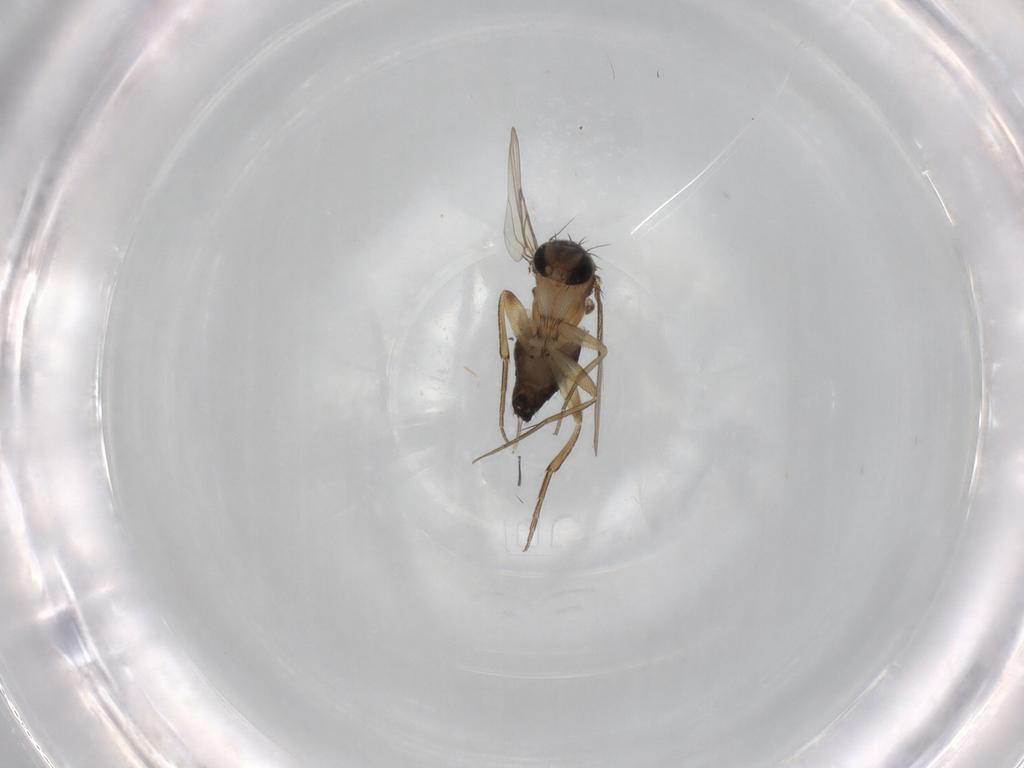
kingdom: Animalia
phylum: Arthropoda
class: Insecta
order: Diptera
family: Phoridae
